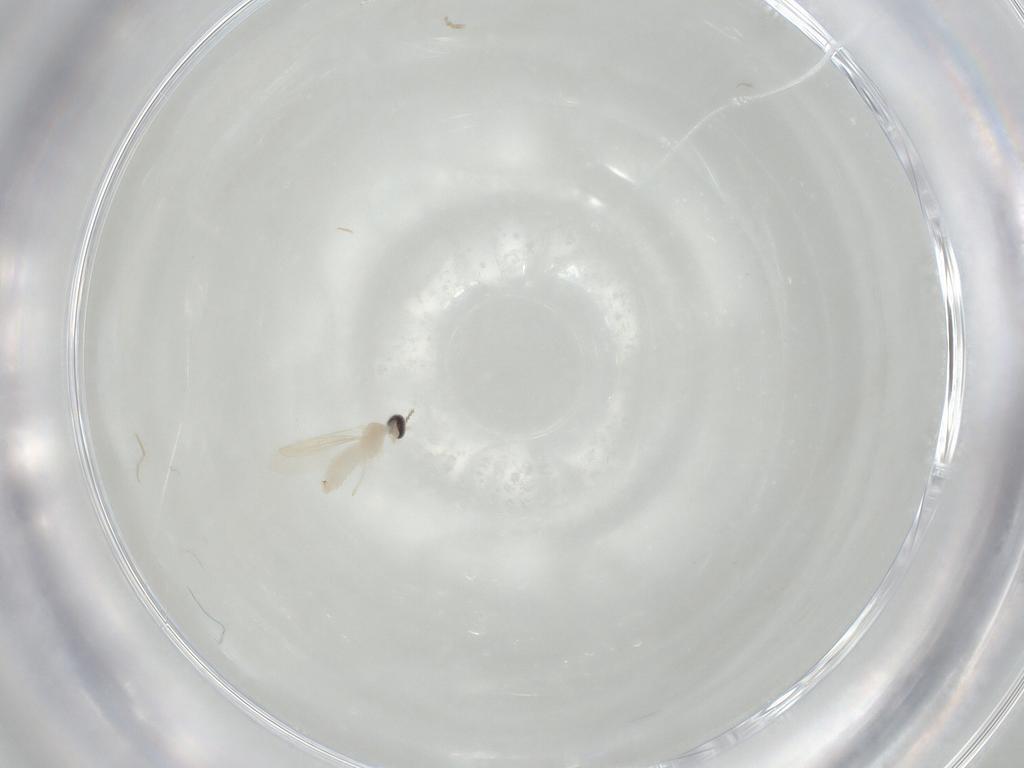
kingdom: Animalia
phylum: Arthropoda
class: Insecta
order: Diptera
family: Cecidomyiidae
